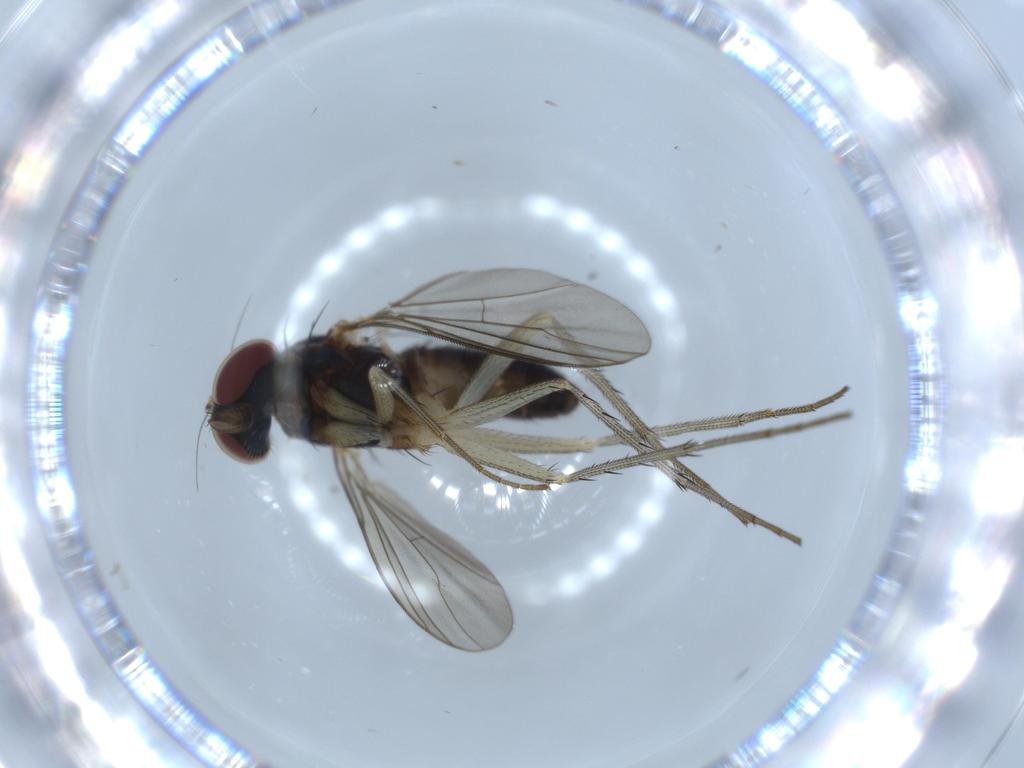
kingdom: Animalia
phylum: Arthropoda
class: Insecta
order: Diptera
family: Dolichopodidae
